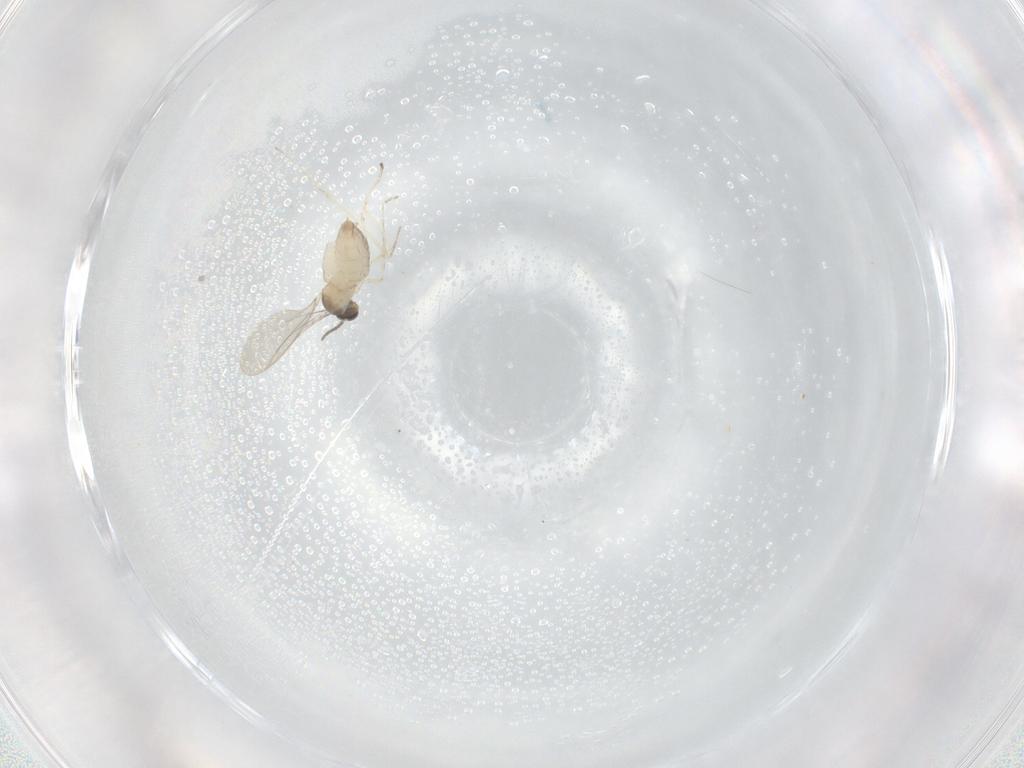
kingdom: Animalia
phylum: Arthropoda
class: Insecta
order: Diptera
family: Cecidomyiidae
